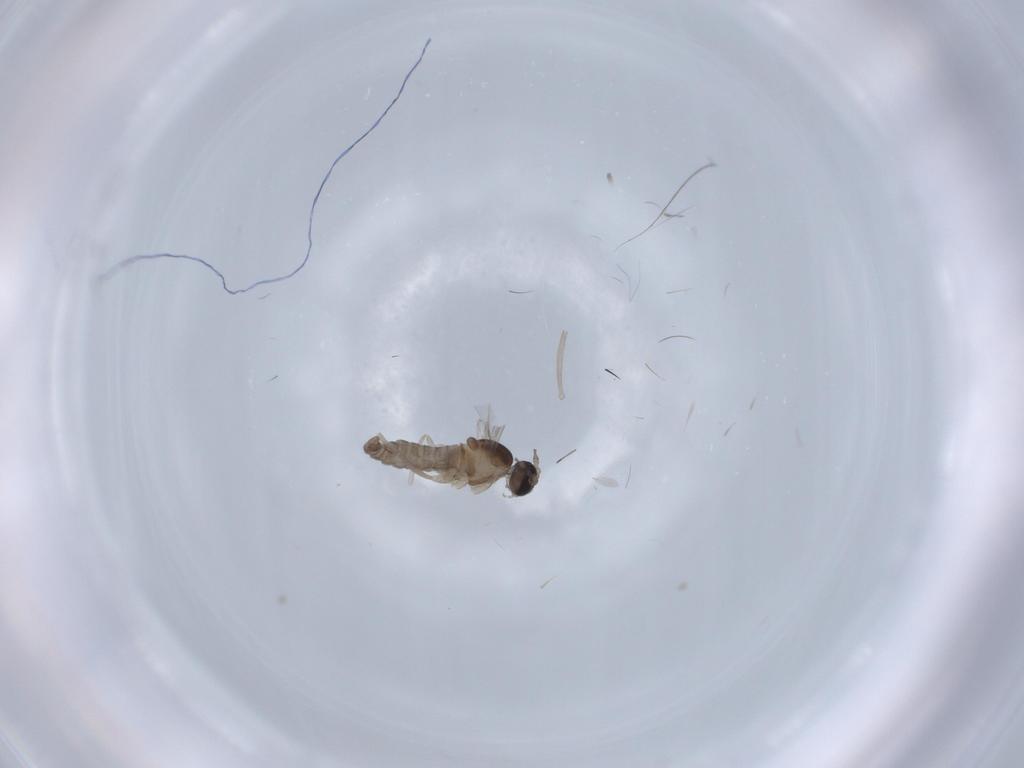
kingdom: Animalia
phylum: Arthropoda
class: Insecta
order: Diptera
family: Cecidomyiidae
